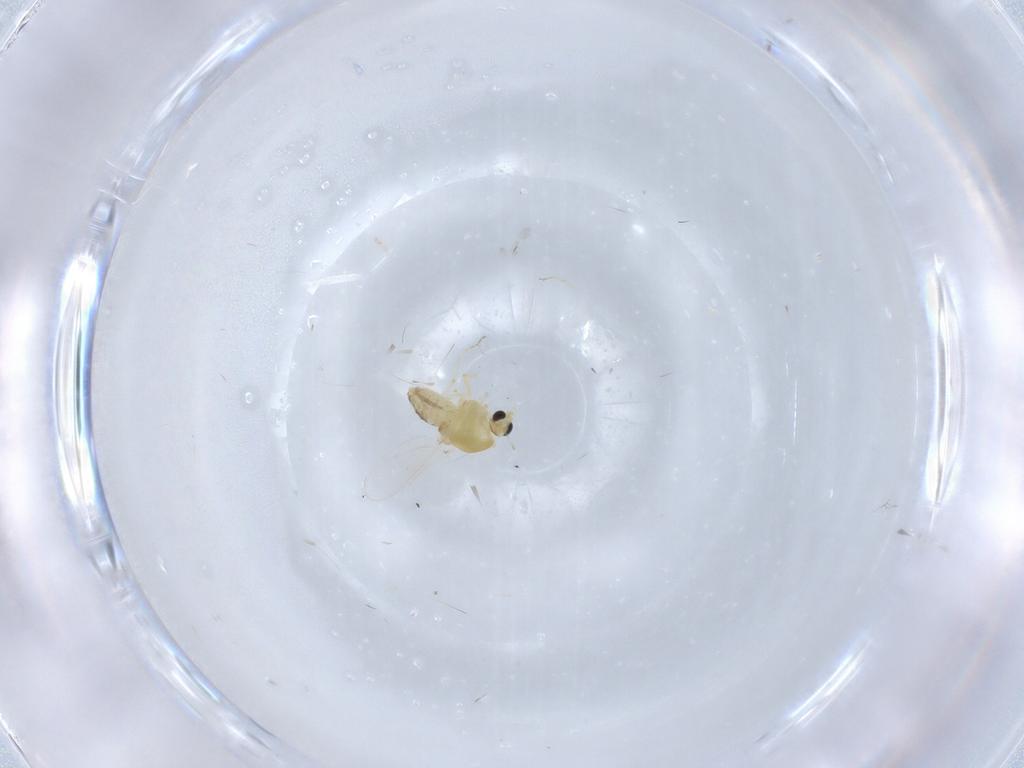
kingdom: Animalia
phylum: Arthropoda
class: Insecta
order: Diptera
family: Chironomidae
